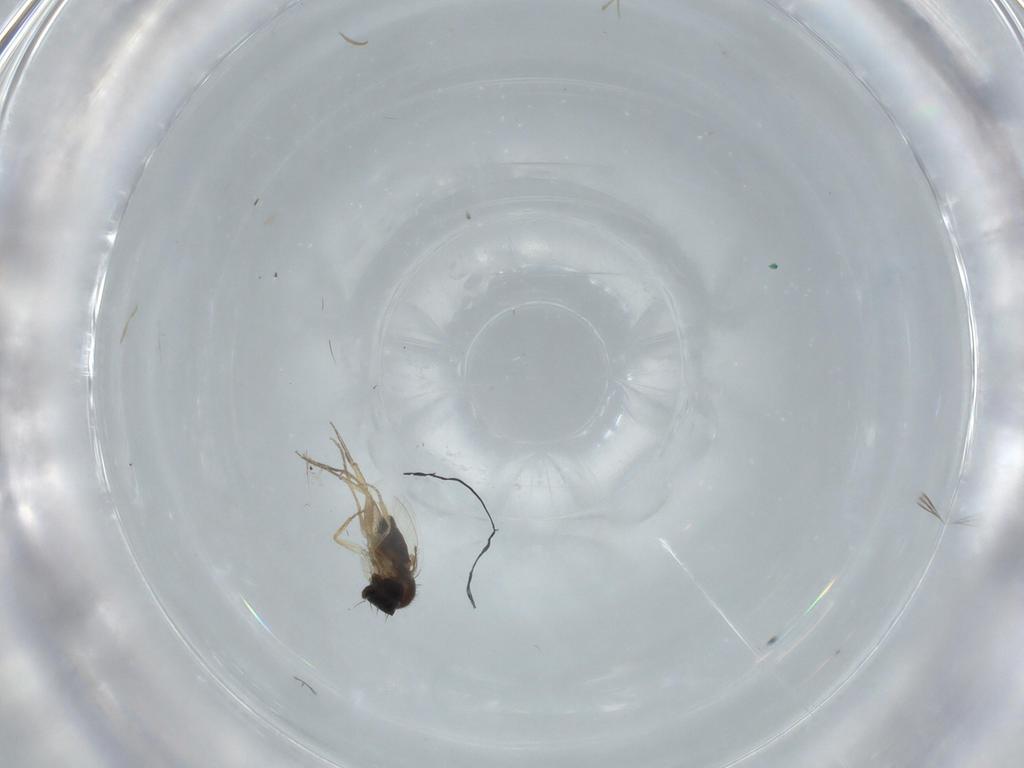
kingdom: Animalia
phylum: Arthropoda
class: Insecta
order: Diptera
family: Phoridae
